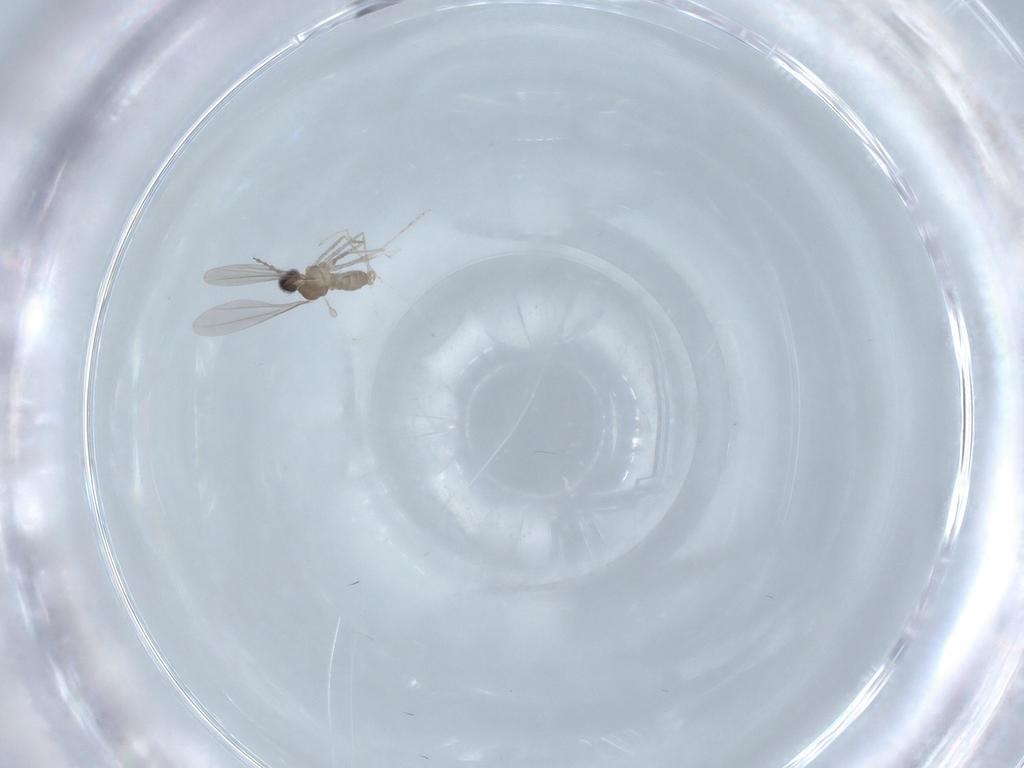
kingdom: Animalia
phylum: Arthropoda
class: Insecta
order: Diptera
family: Cecidomyiidae
